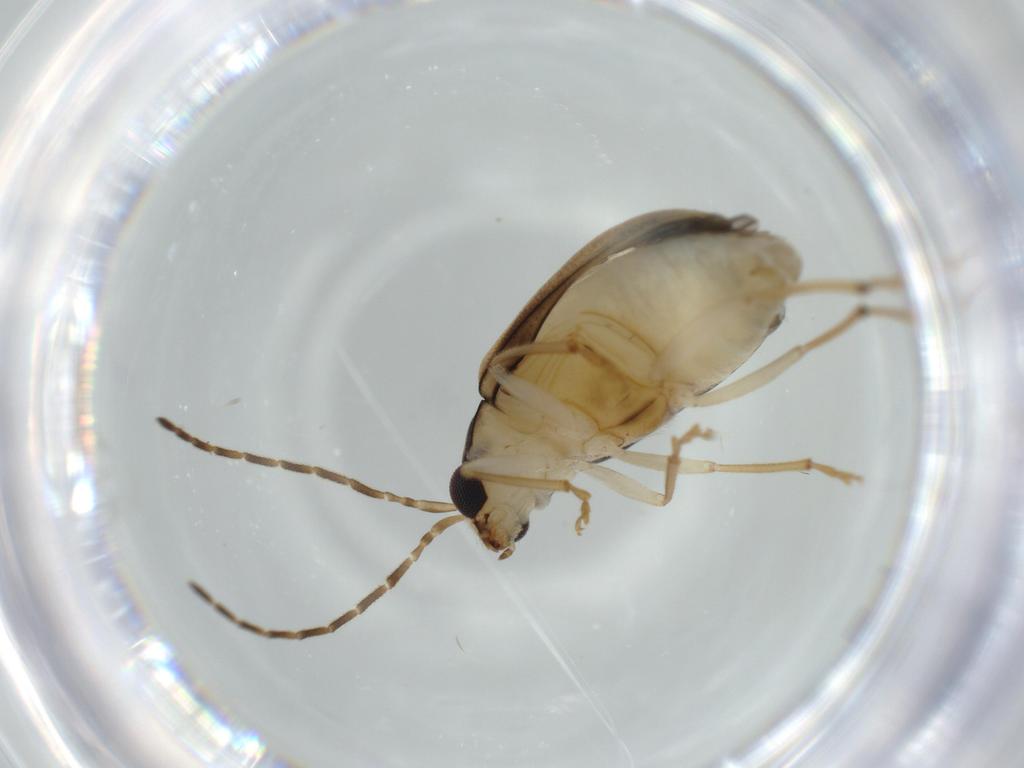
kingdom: Animalia
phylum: Arthropoda
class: Insecta
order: Coleoptera
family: Chrysomelidae
